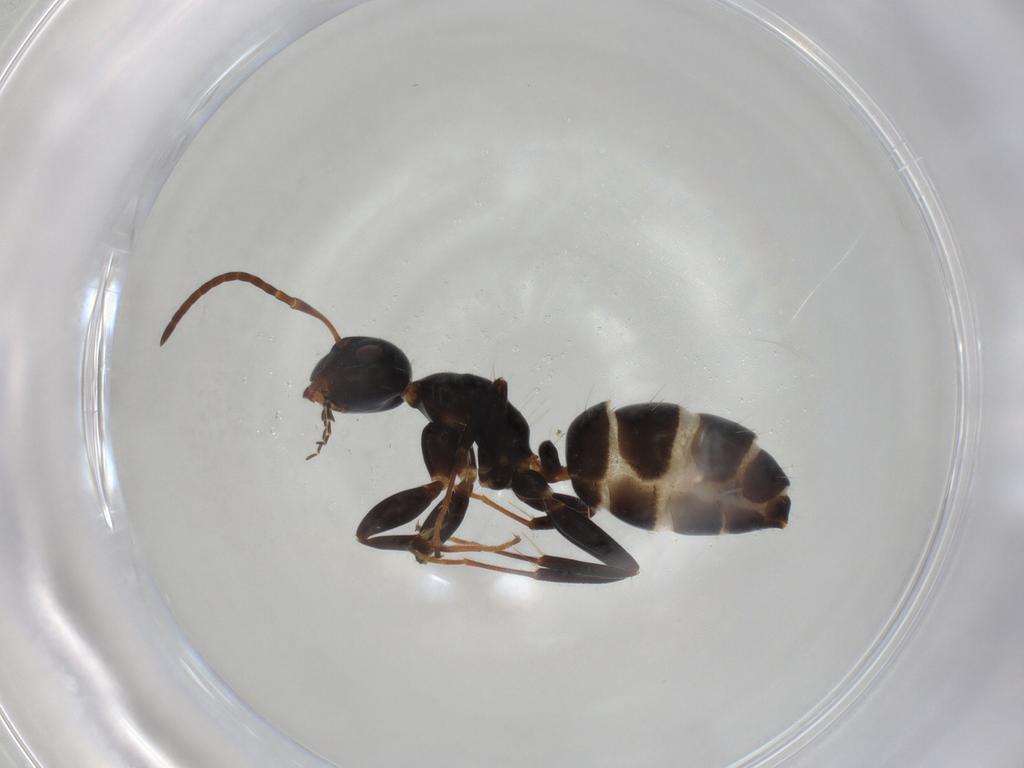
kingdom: Animalia
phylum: Arthropoda
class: Insecta
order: Hymenoptera
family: Formicidae
